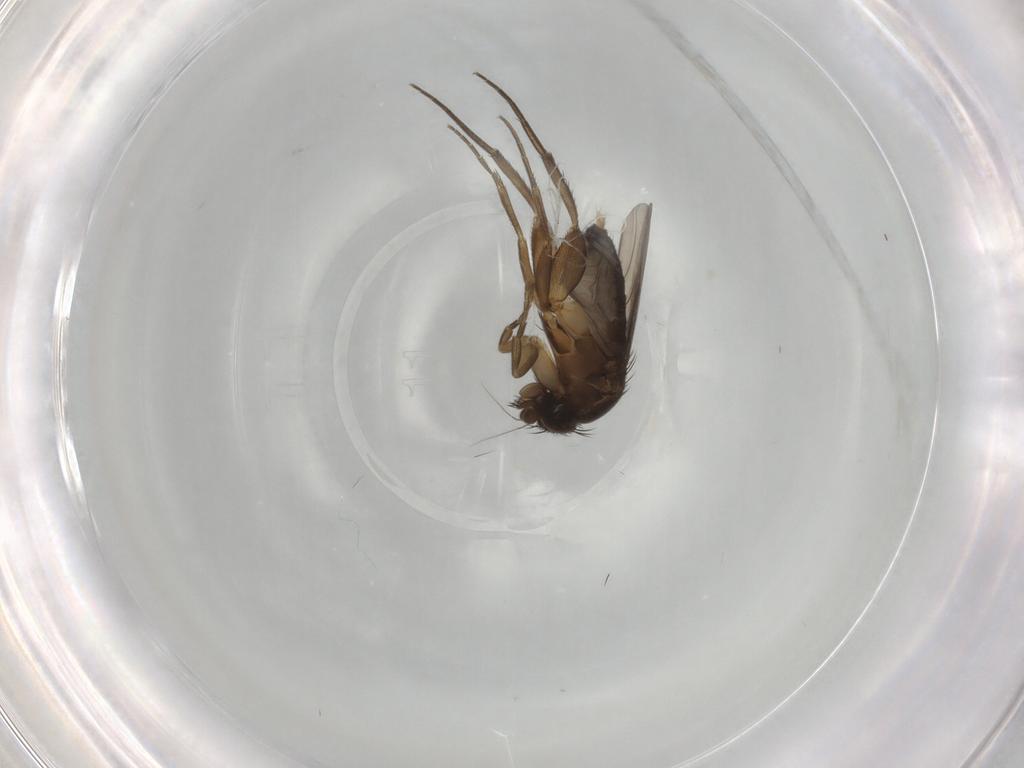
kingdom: Animalia
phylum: Arthropoda
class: Insecta
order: Diptera
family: Phoridae
